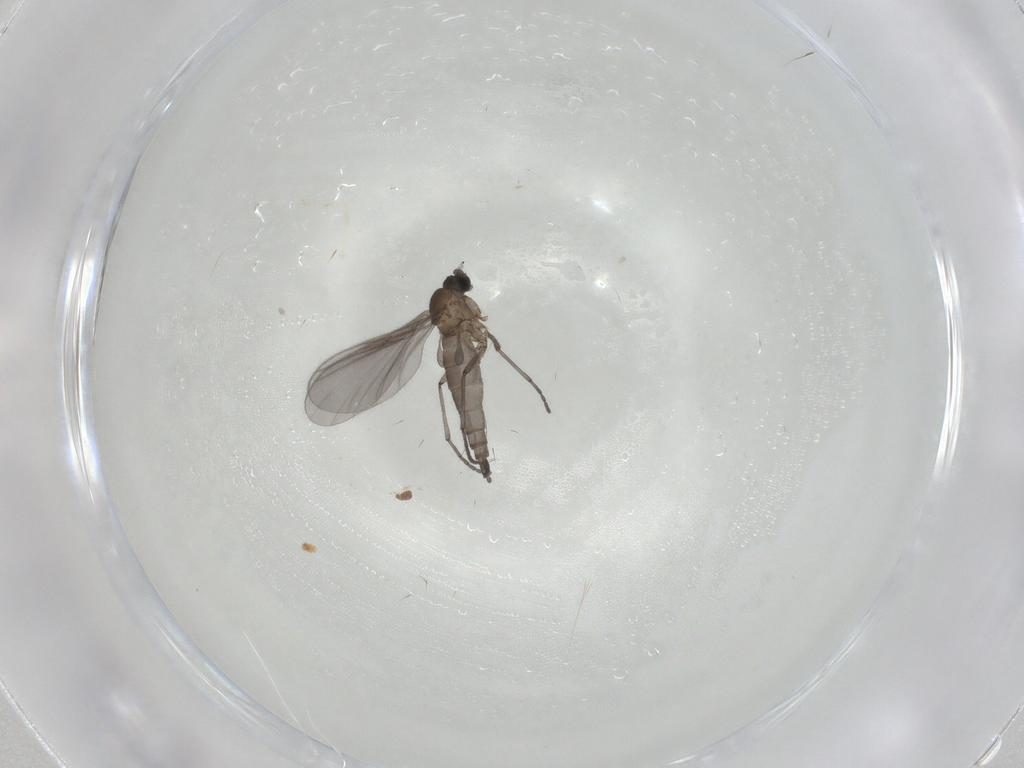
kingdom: Animalia
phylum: Arthropoda
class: Insecta
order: Diptera
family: Sciaridae
